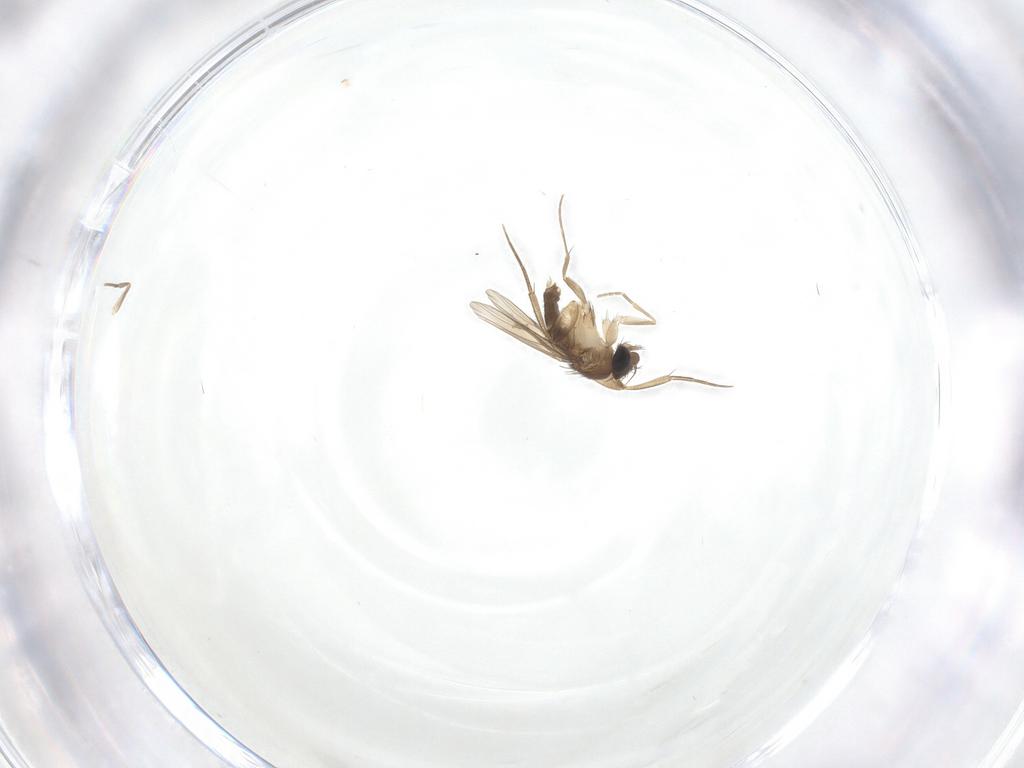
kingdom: Animalia
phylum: Arthropoda
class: Insecta
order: Diptera
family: Phoridae
